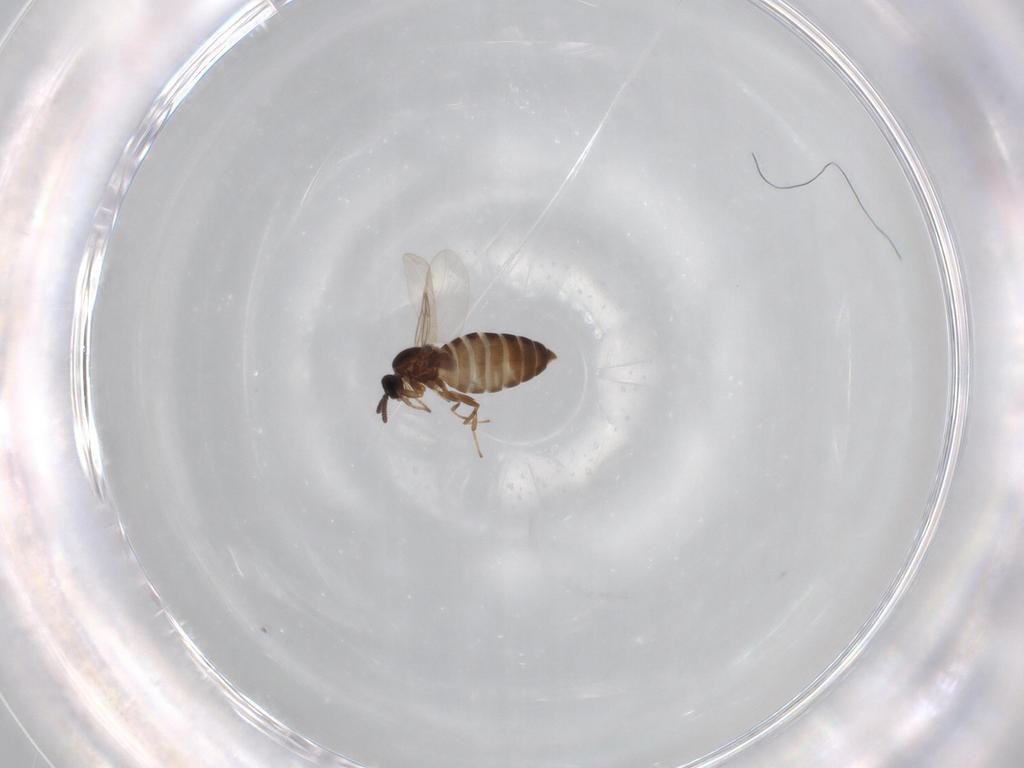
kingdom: Animalia
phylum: Arthropoda
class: Insecta
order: Diptera
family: Scatopsidae
